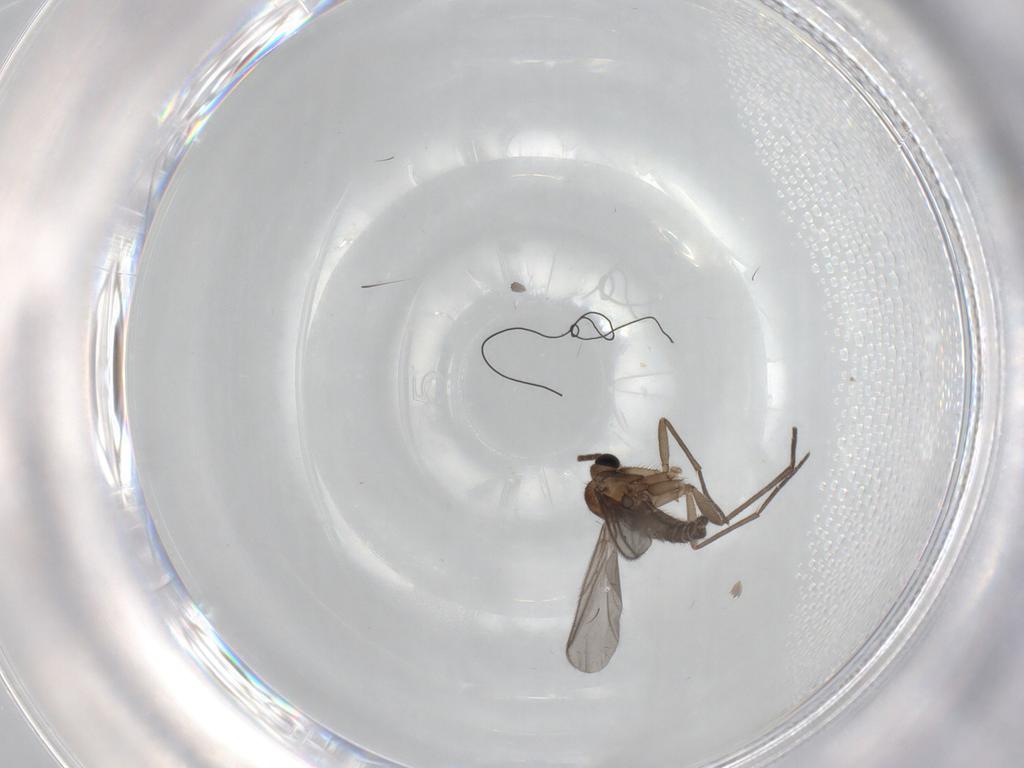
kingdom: Animalia
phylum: Arthropoda
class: Insecta
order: Diptera
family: Sciaridae
